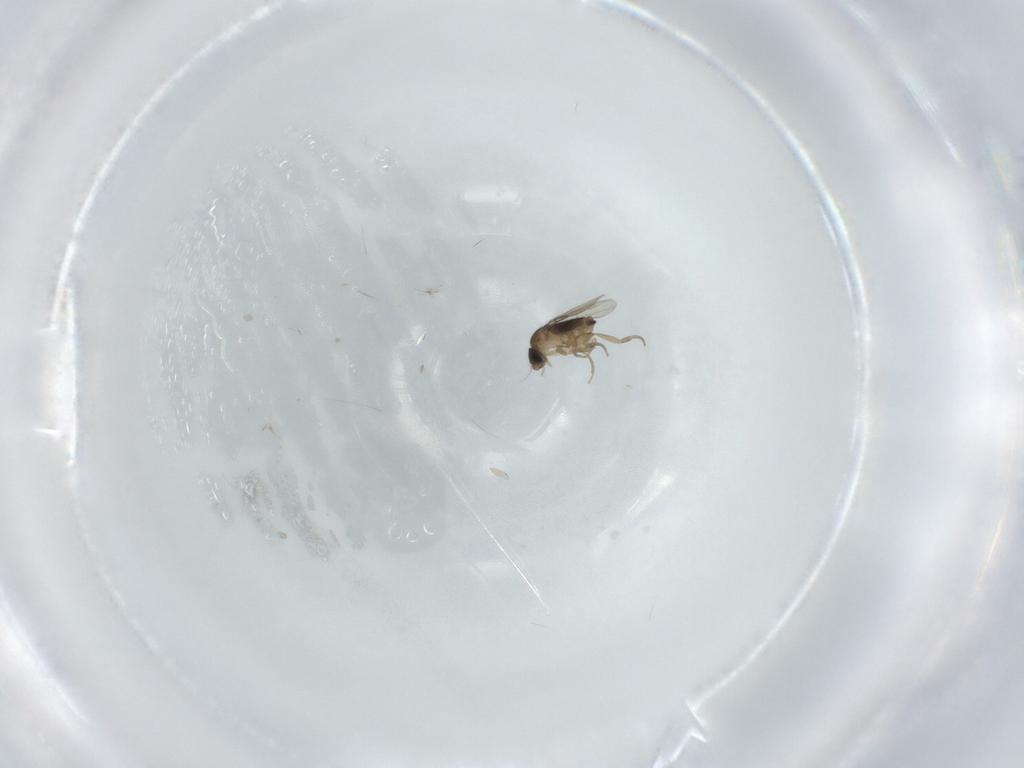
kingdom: Animalia
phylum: Arthropoda
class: Insecta
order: Diptera
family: Phoridae
